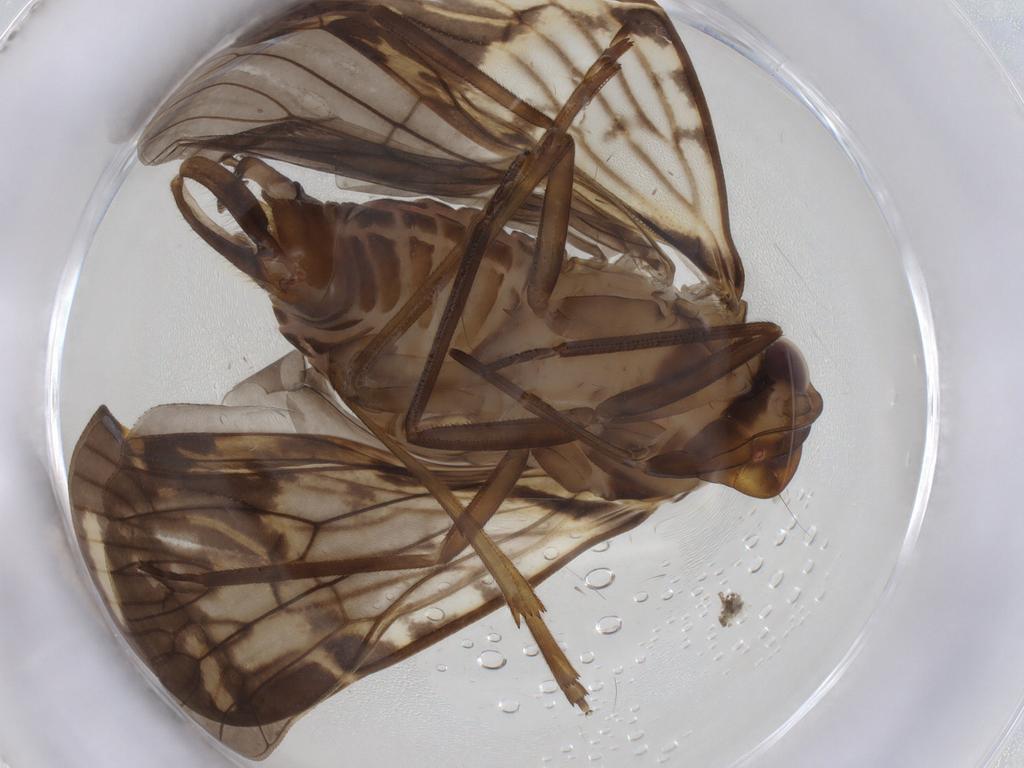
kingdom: Animalia
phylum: Arthropoda
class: Insecta
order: Hemiptera
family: Cixiidae
